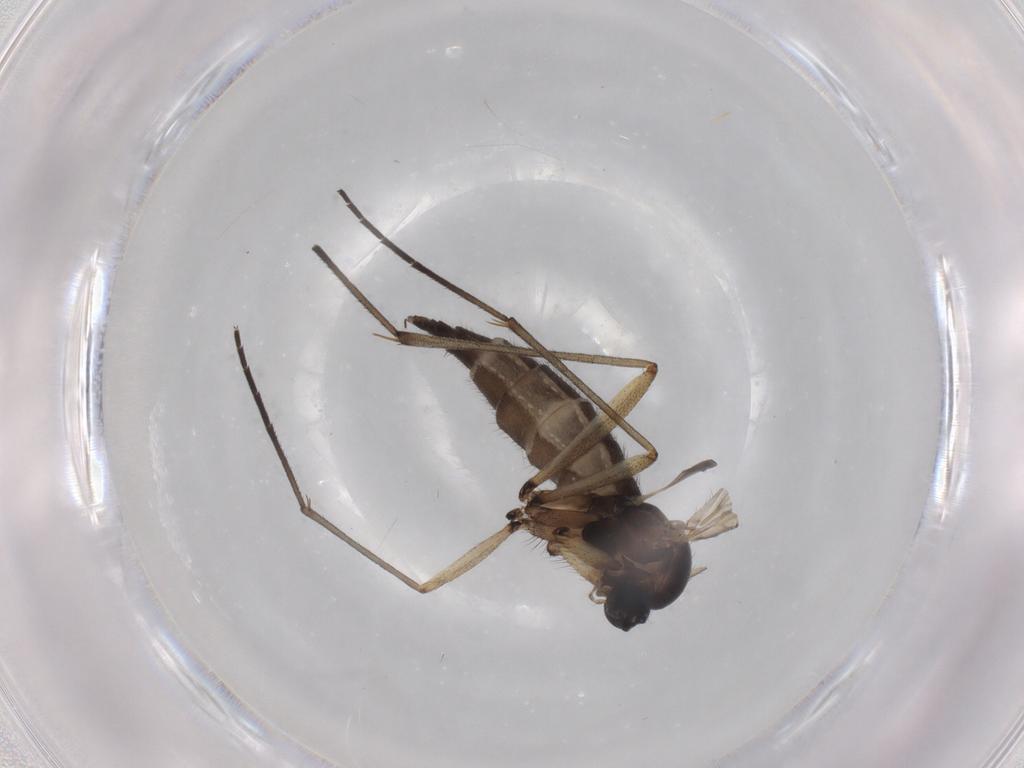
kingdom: Animalia
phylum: Arthropoda
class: Insecta
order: Diptera
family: Sciaridae
